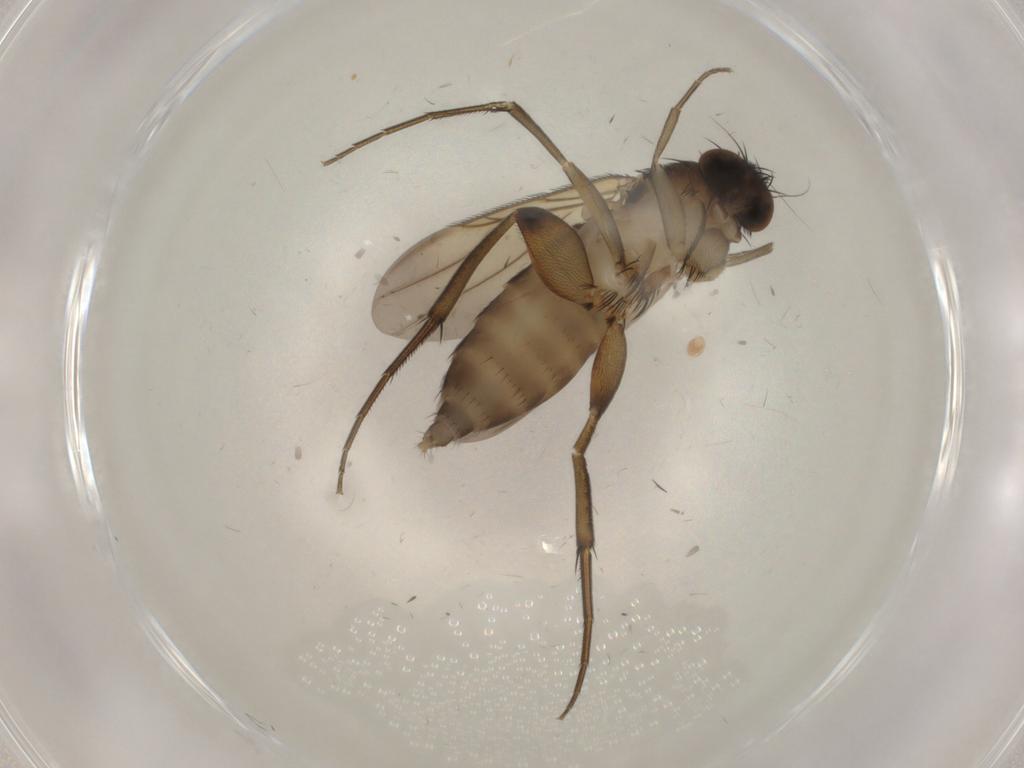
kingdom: Animalia
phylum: Arthropoda
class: Insecta
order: Diptera
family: Phoridae
